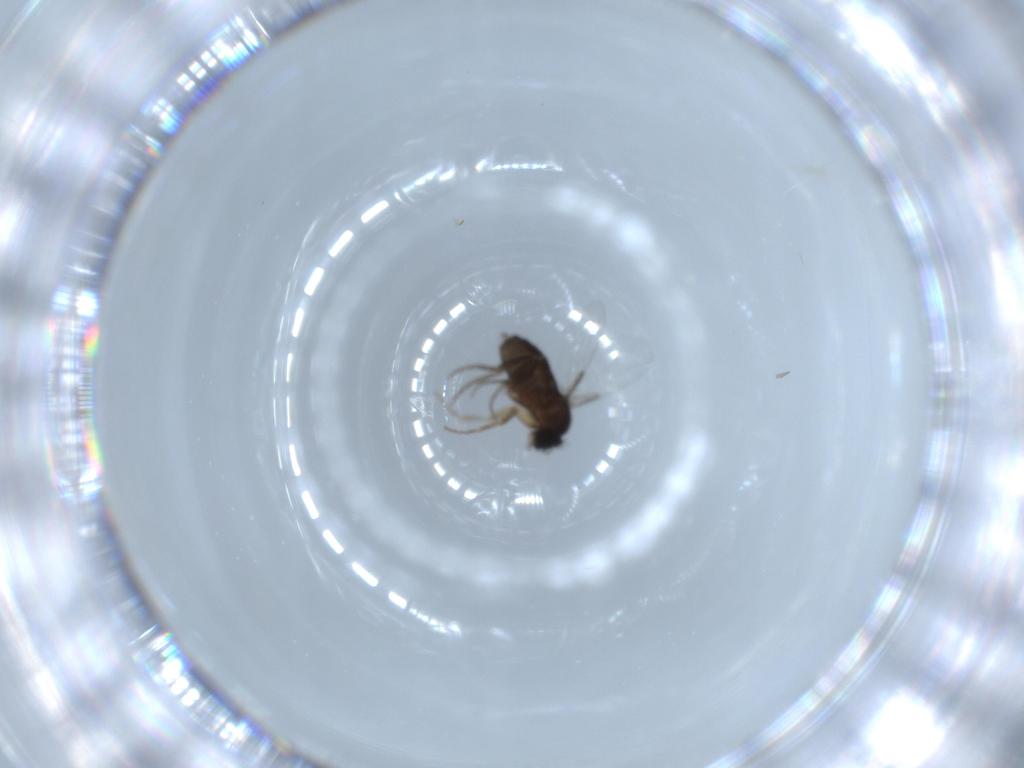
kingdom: Animalia
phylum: Arthropoda
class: Insecta
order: Diptera
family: Phoridae
